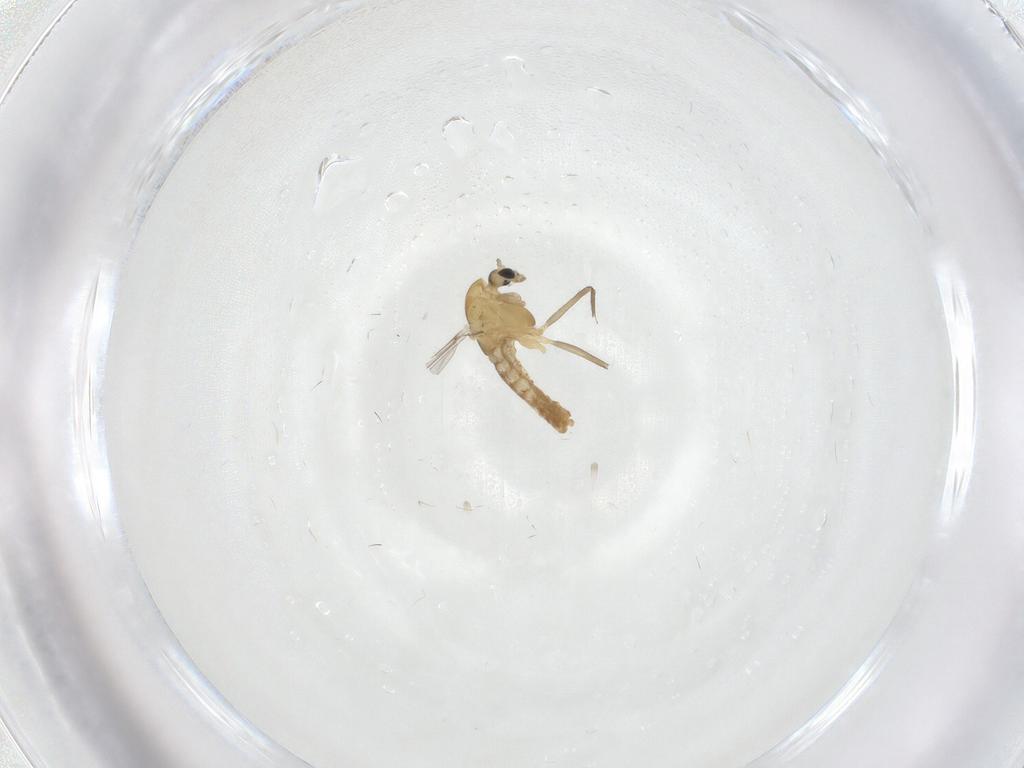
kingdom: Animalia
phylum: Arthropoda
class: Insecta
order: Diptera
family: Chironomidae
